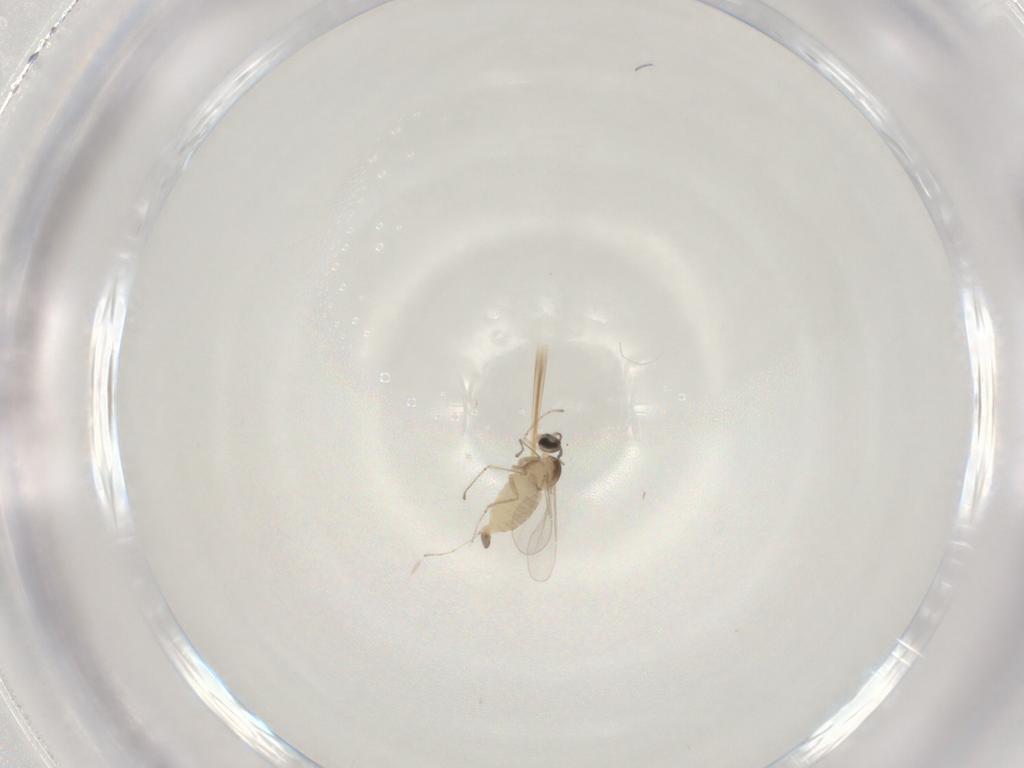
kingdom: Animalia
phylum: Arthropoda
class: Insecta
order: Diptera
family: Cecidomyiidae
